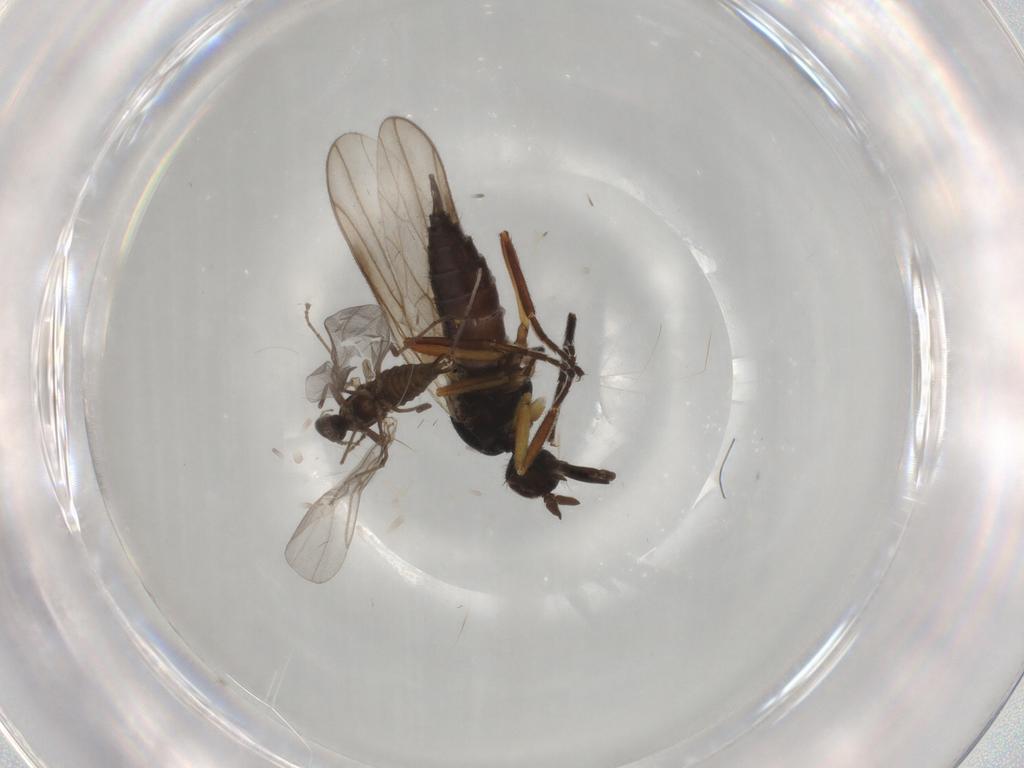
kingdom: Animalia
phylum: Arthropoda
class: Insecta
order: Diptera
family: Hybotidae
